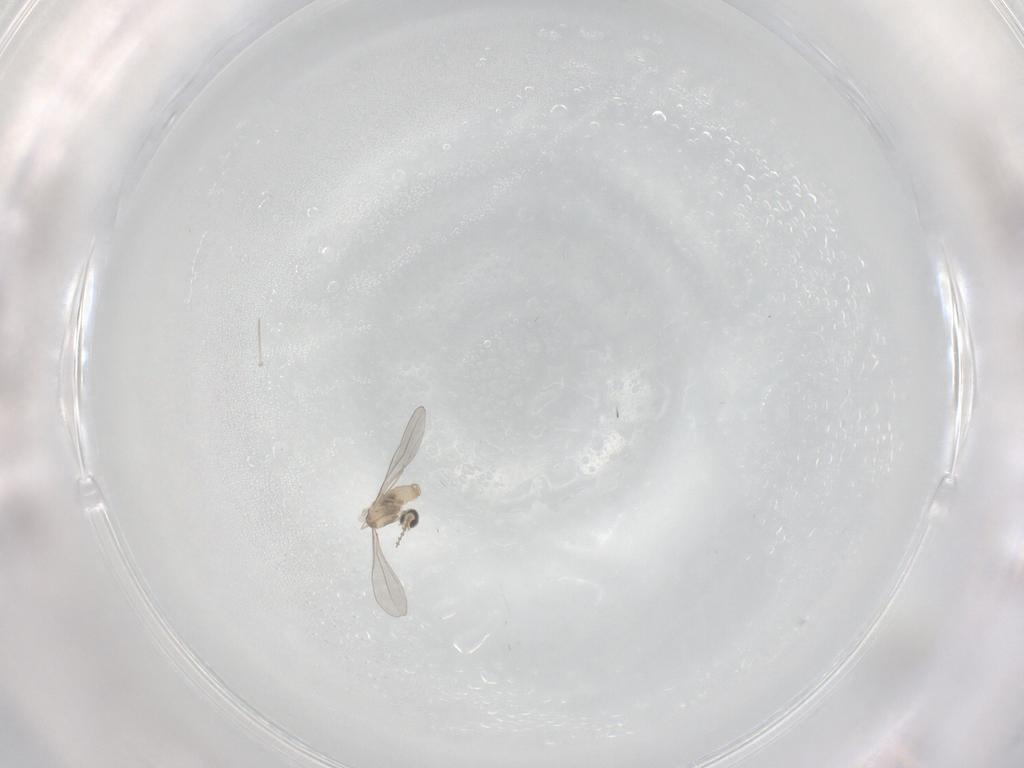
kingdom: Animalia
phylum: Arthropoda
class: Insecta
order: Diptera
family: Cecidomyiidae
